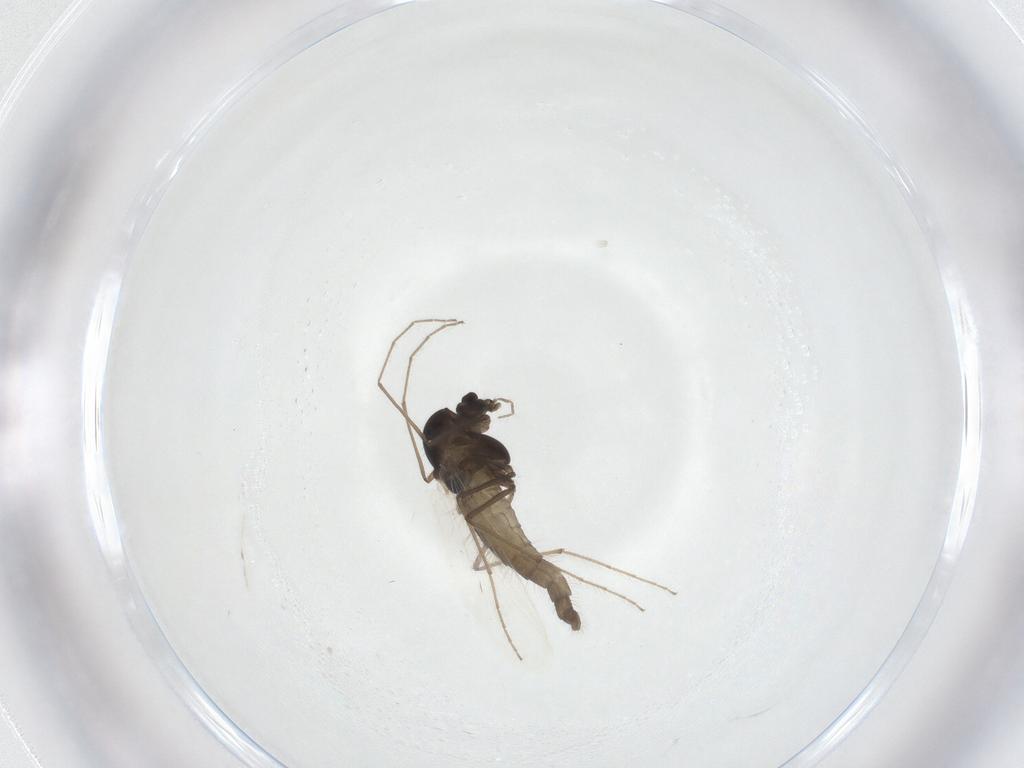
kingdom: Animalia
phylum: Arthropoda
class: Insecta
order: Diptera
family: Chironomidae
